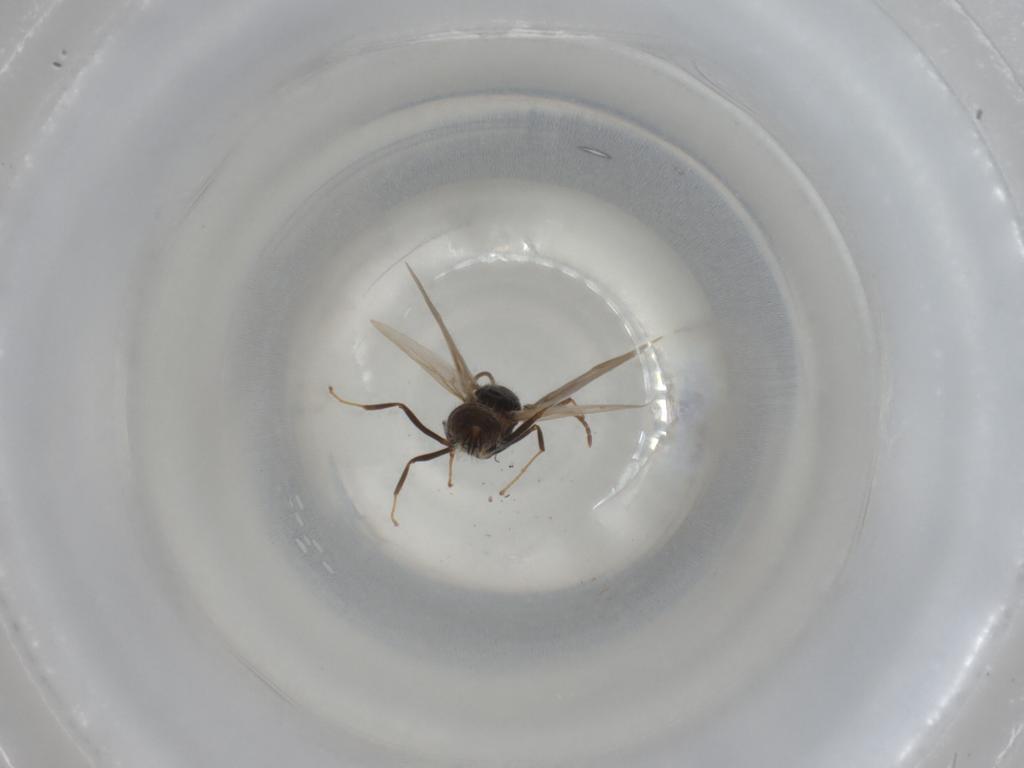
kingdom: Animalia
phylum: Arthropoda
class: Insecta
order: Hymenoptera
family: Formicidae
